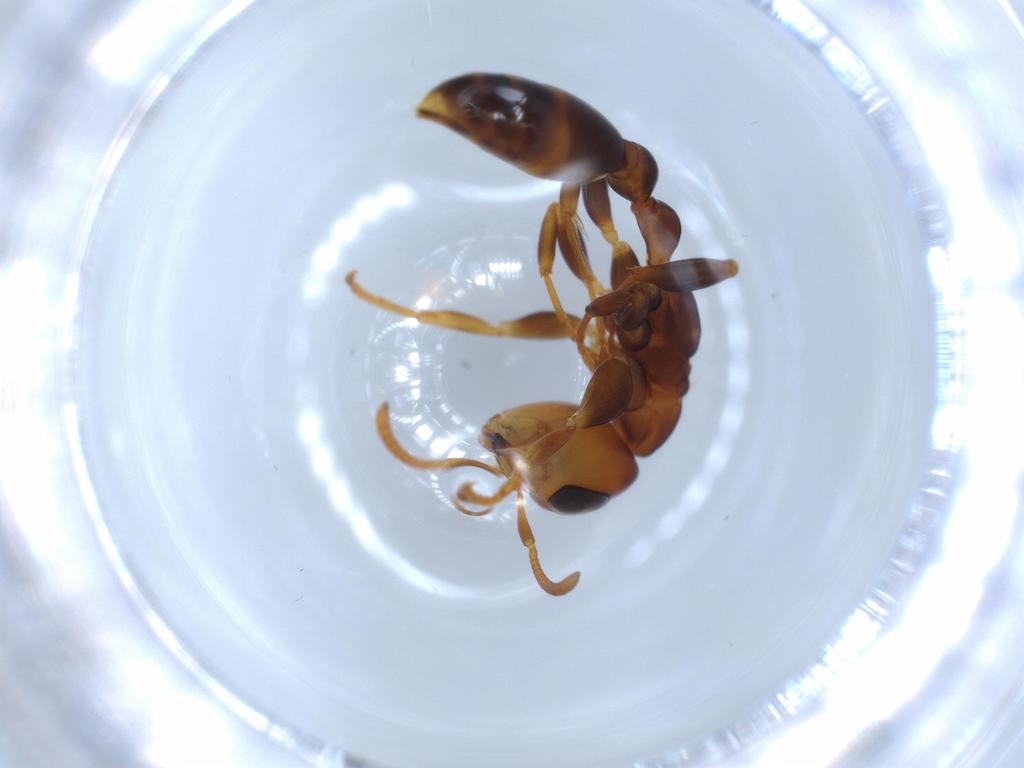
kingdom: Animalia
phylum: Arthropoda
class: Insecta
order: Hymenoptera
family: Formicidae
